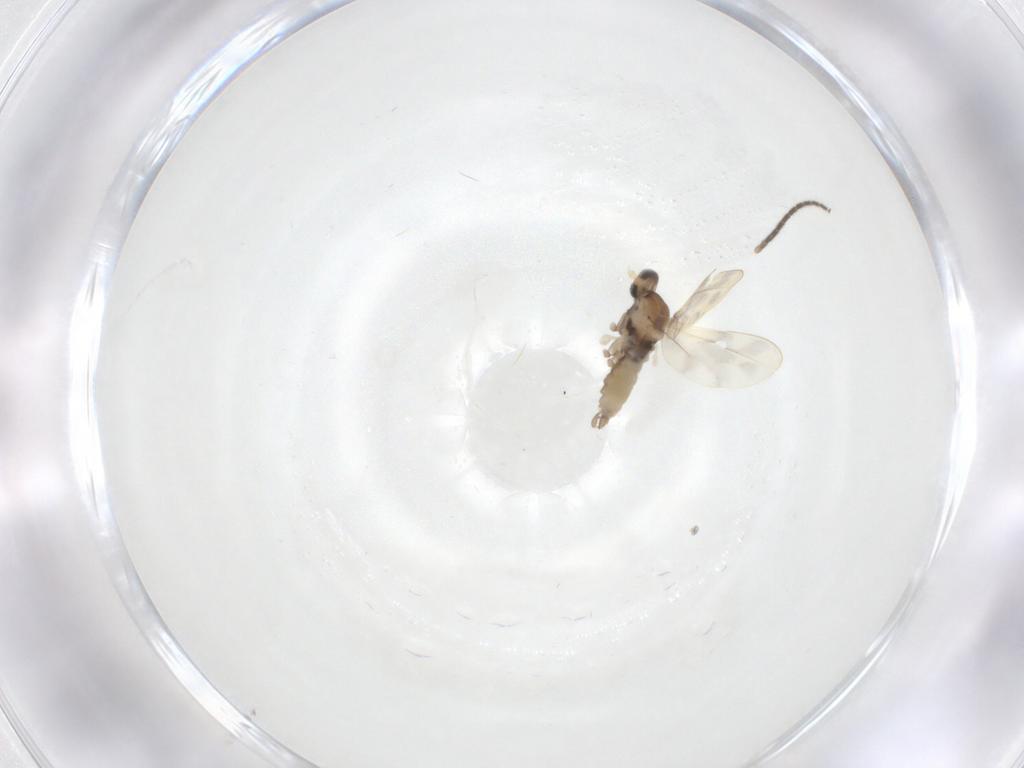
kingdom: Animalia
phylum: Arthropoda
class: Insecta
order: Diptera
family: Cecidomyiidae
